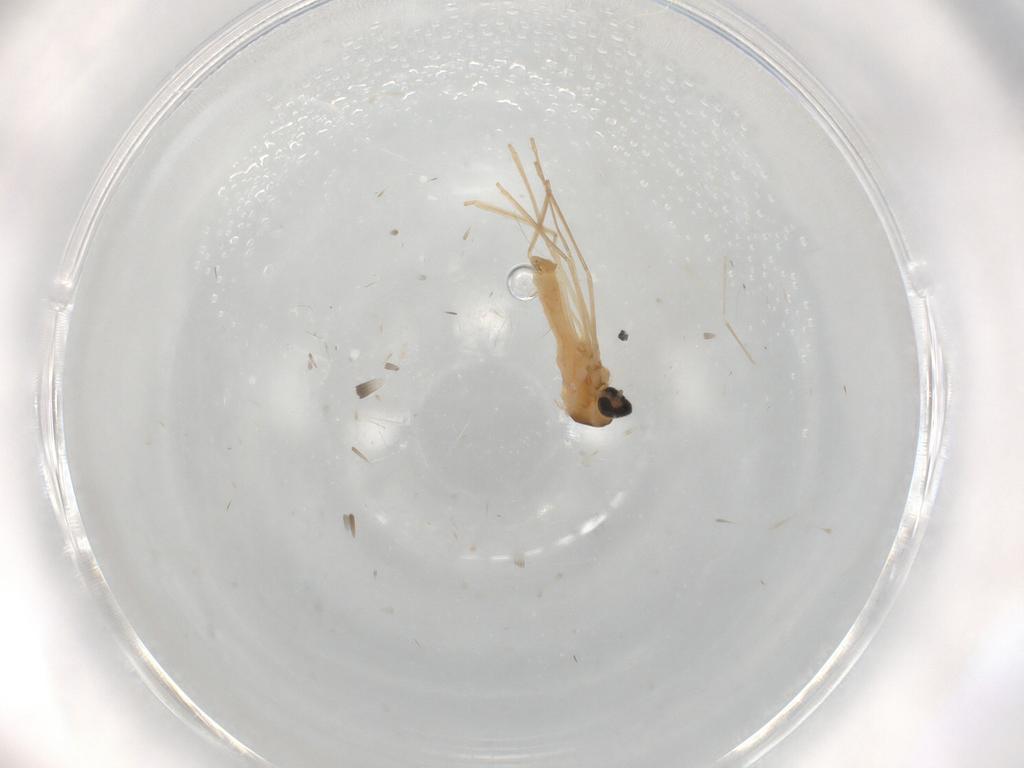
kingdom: Animalia
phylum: Arthropoda
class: Insecta
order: Diptera
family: Cecidomyiidae
